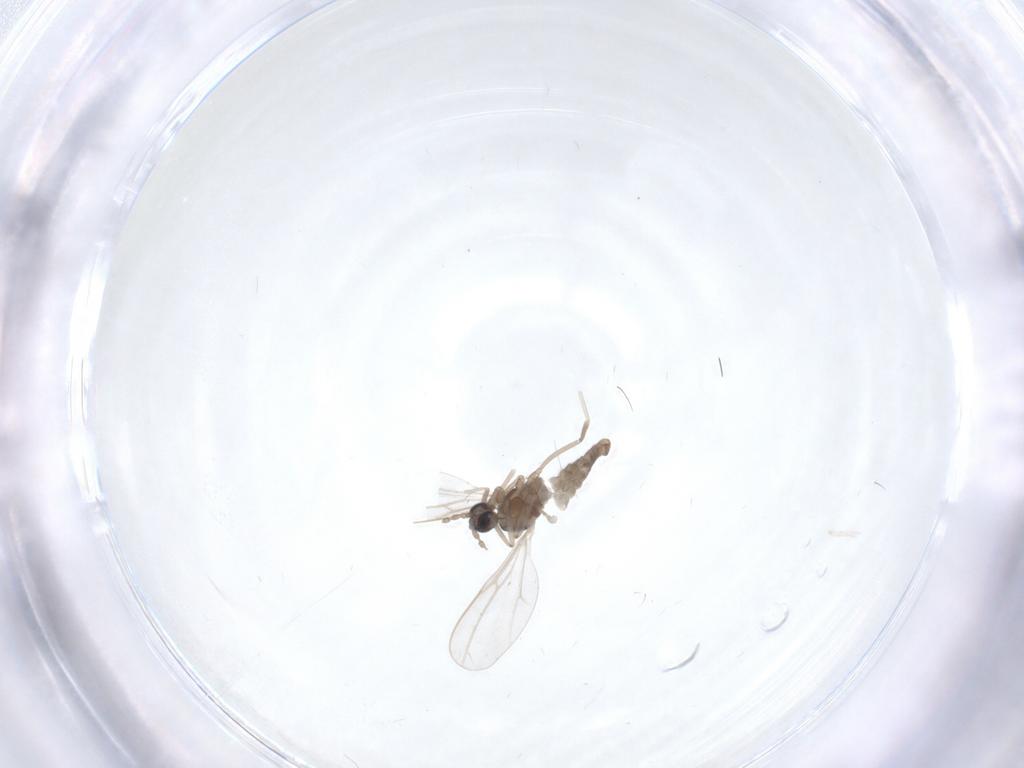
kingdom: Animalia
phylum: Arthropoda
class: Insecta
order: Diptera
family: Cecidomyiidae
